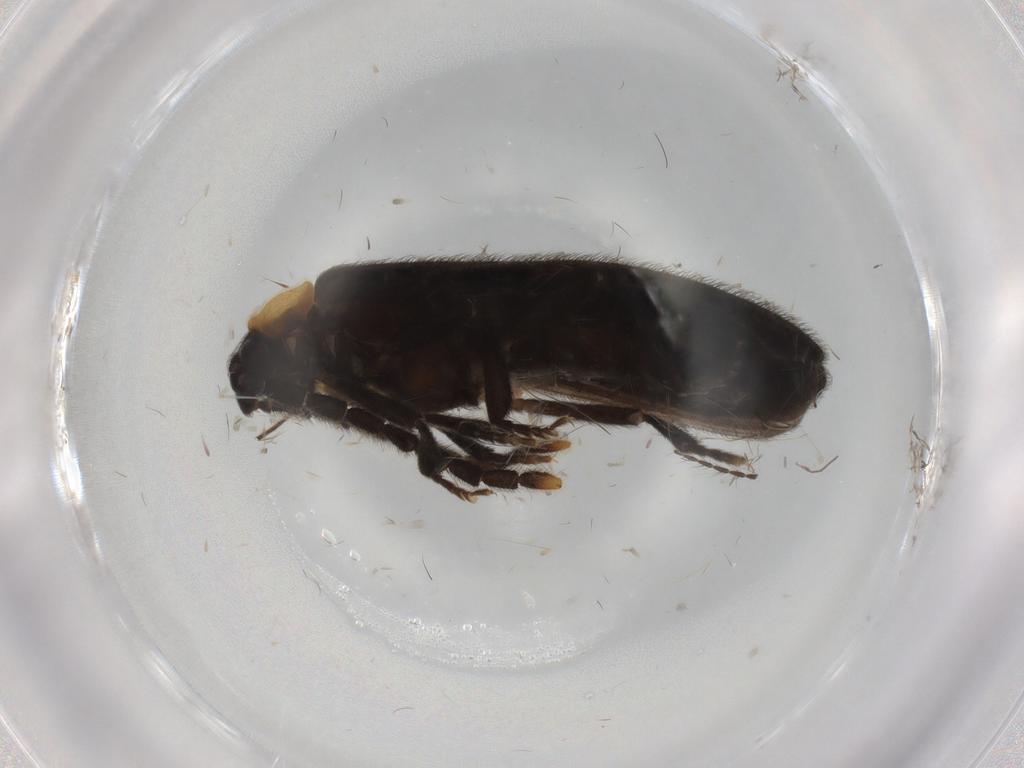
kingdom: Animalia
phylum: Arthropoda
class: Insecta
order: Coleoptera
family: Lycidae
